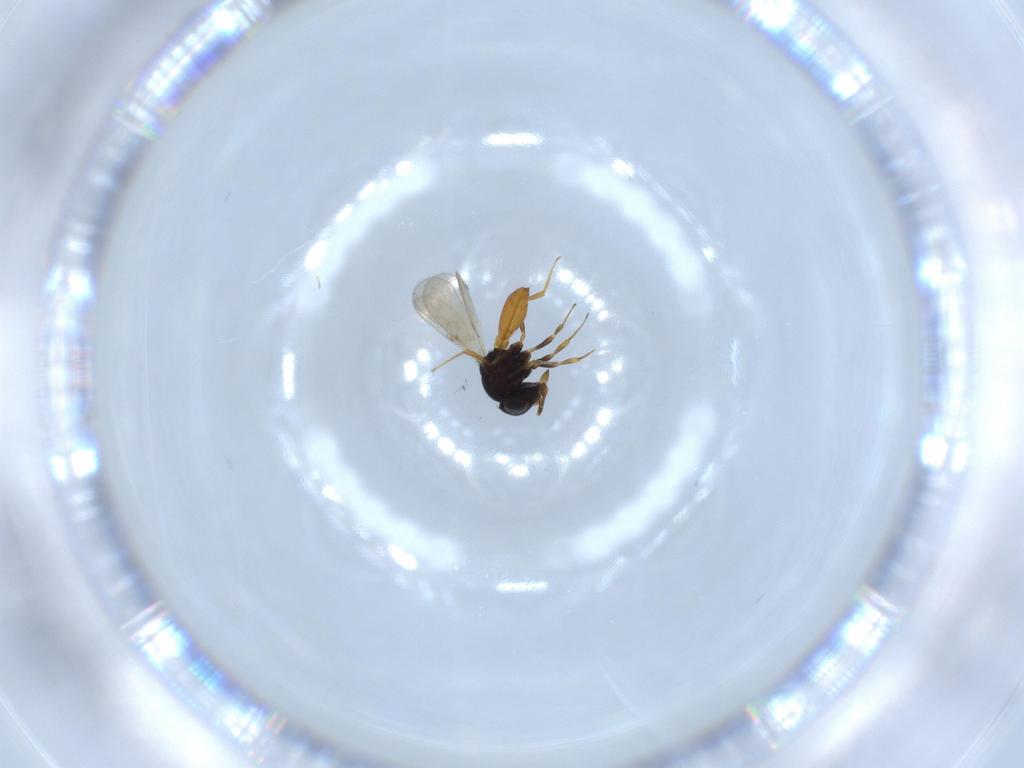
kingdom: Animalia
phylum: Arthropoda
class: Insecta
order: Hymenoptera
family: Scelionidae
